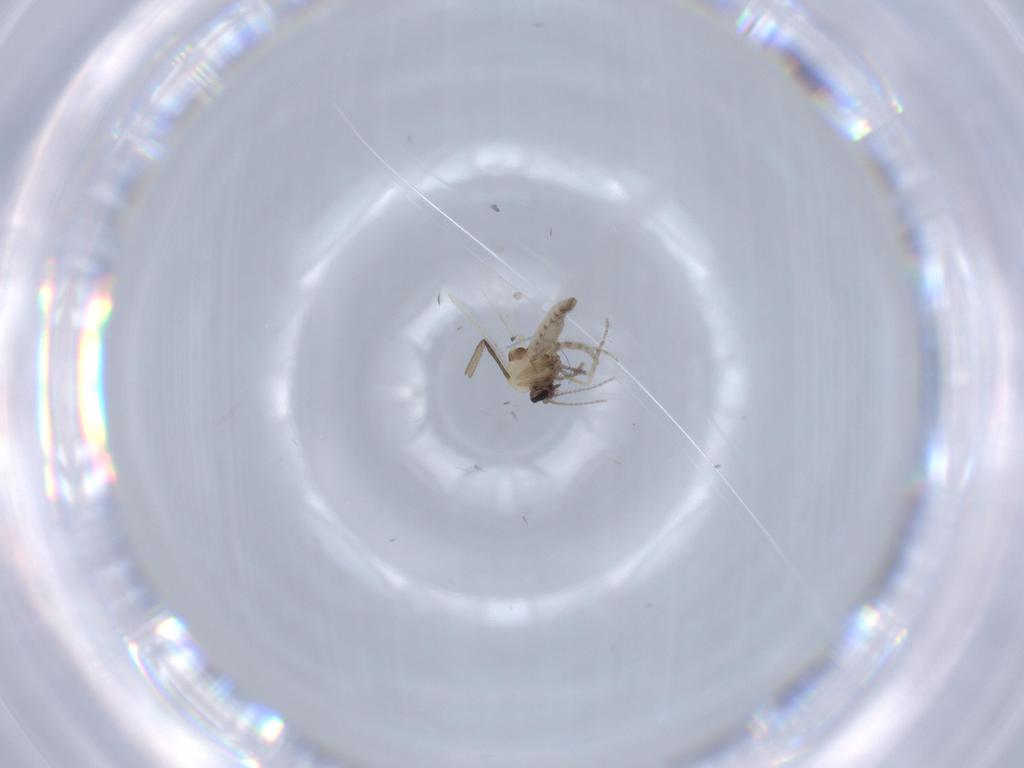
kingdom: Animalia
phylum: Arthropoda
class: Insecta
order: Diptera
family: Ceratopogonidae
